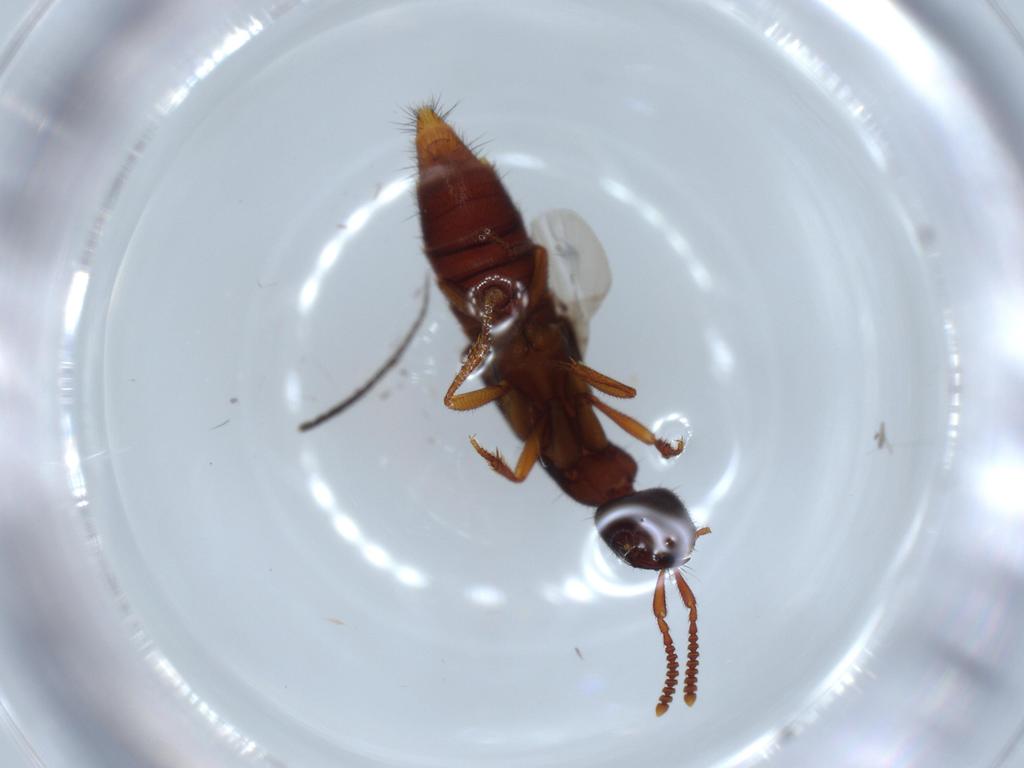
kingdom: Animalia
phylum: Arthropoda
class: Insecta
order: Coleoptera
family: Staphylinidae
